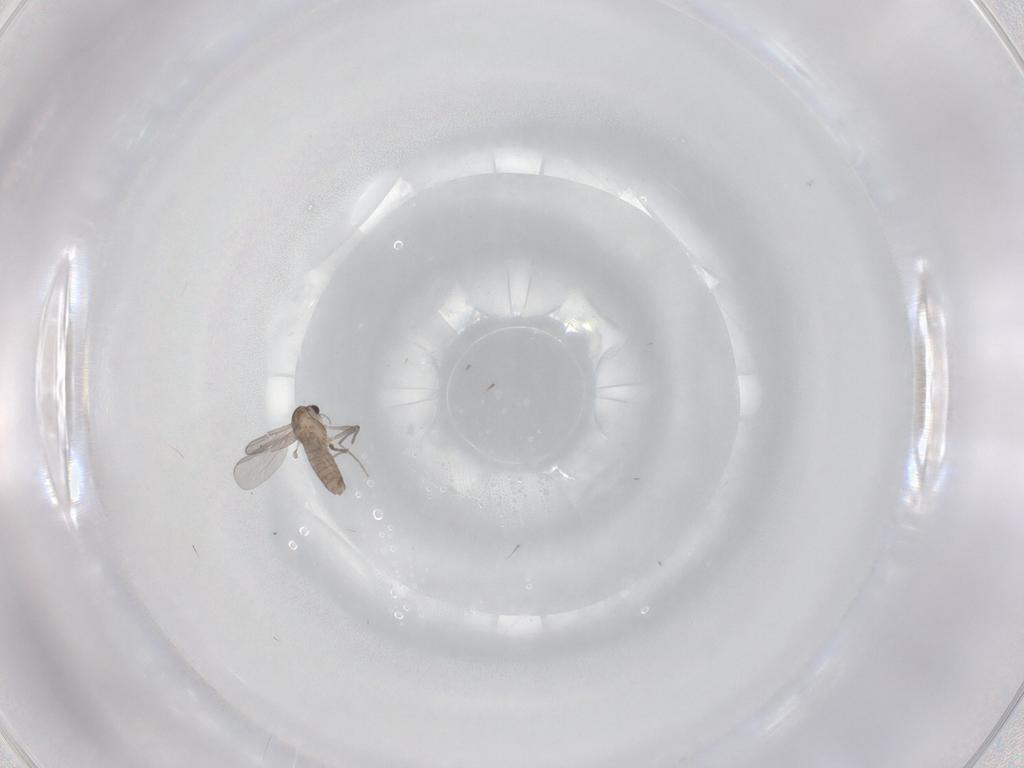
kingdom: Animalia
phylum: Arthropoda
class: Insecta
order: Diptera
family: Chironomidae
